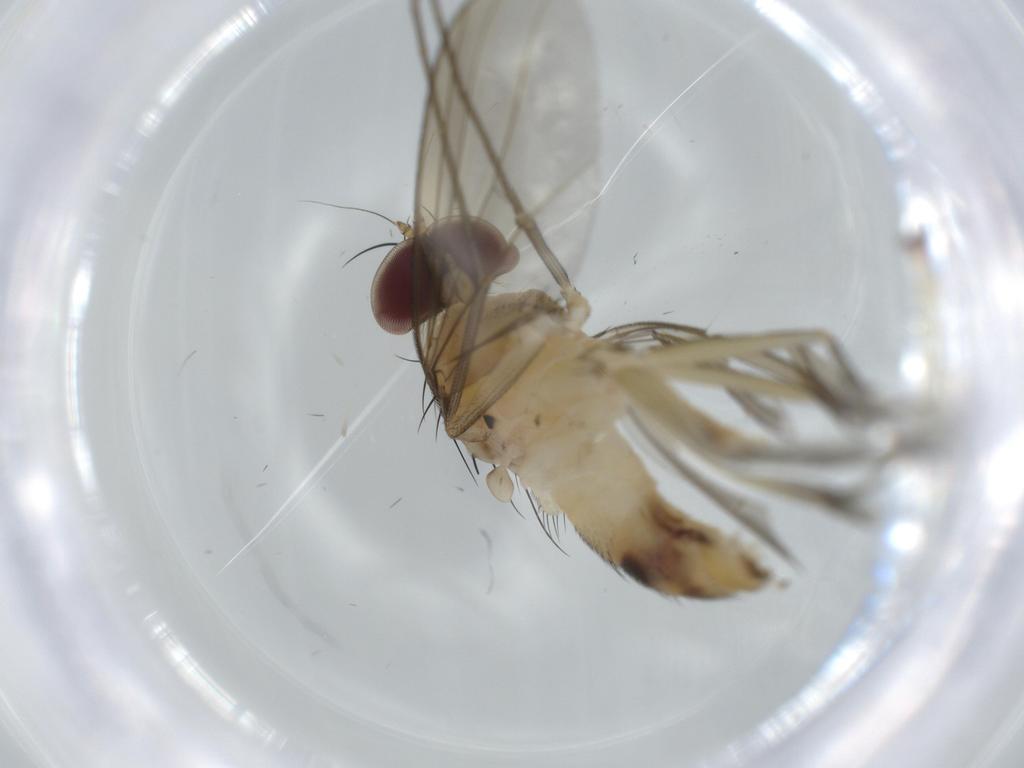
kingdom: Animalia
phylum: Arthropoda
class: Insecta
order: Diptera
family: Dolichopodidae
